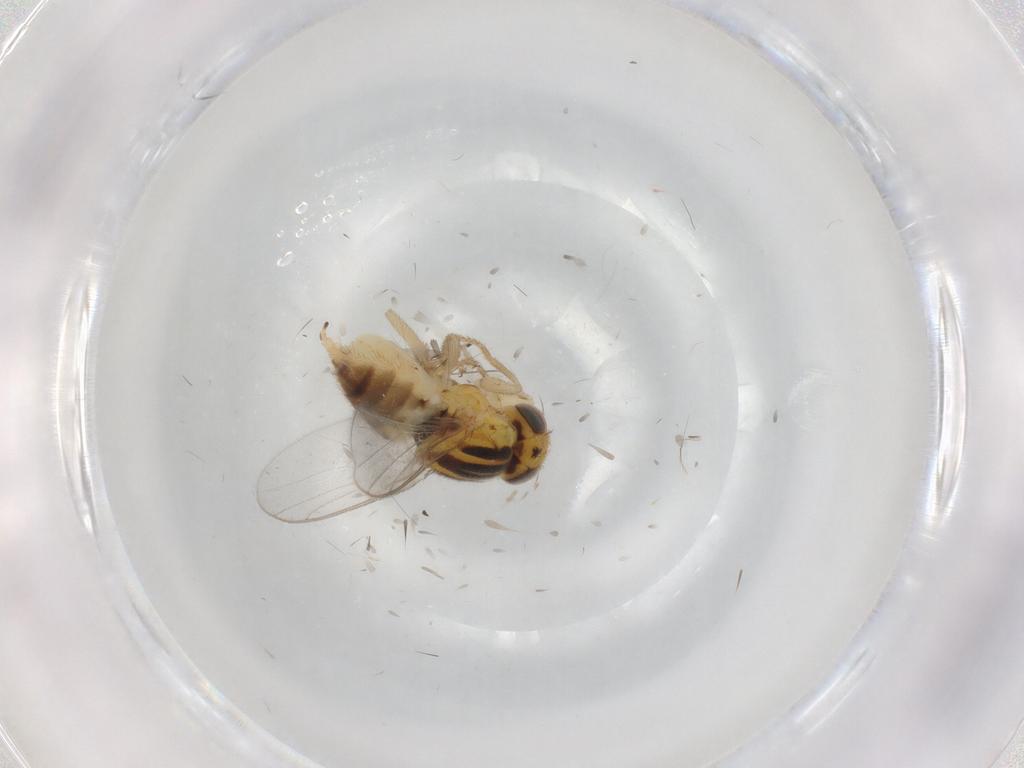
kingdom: Animalia
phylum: Arthropoda
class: Insecta
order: Diptera
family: Chloropidae
